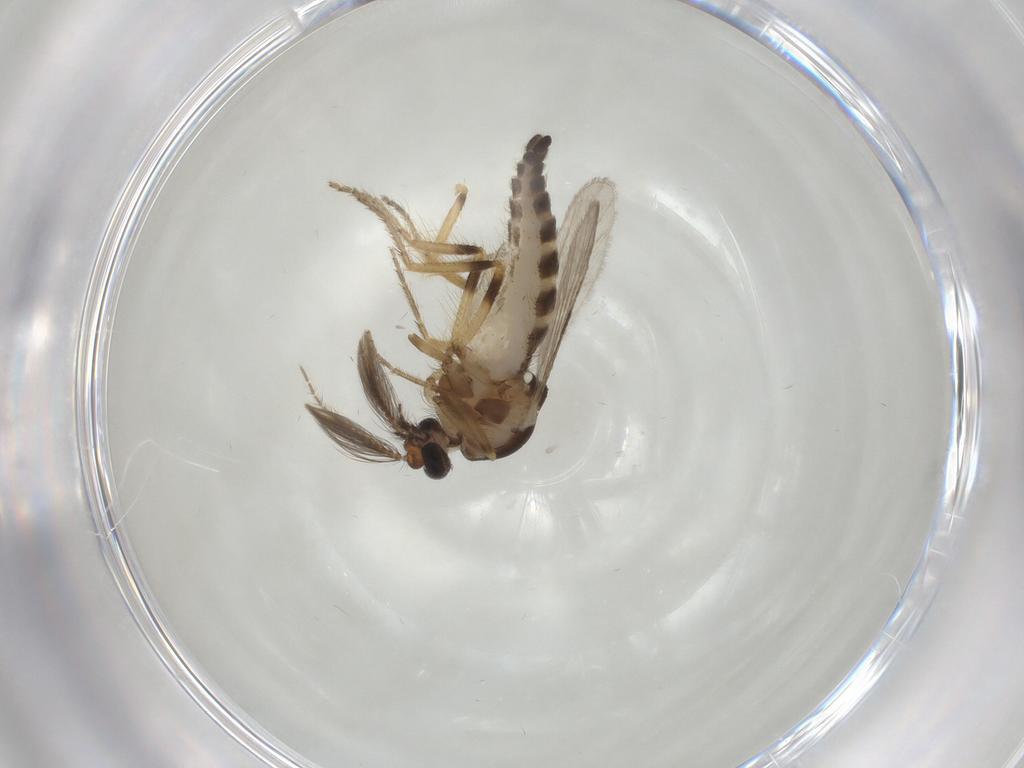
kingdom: Animalia
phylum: Arthropoda
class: Insecta
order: Diptera
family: Ceratopogonidae
